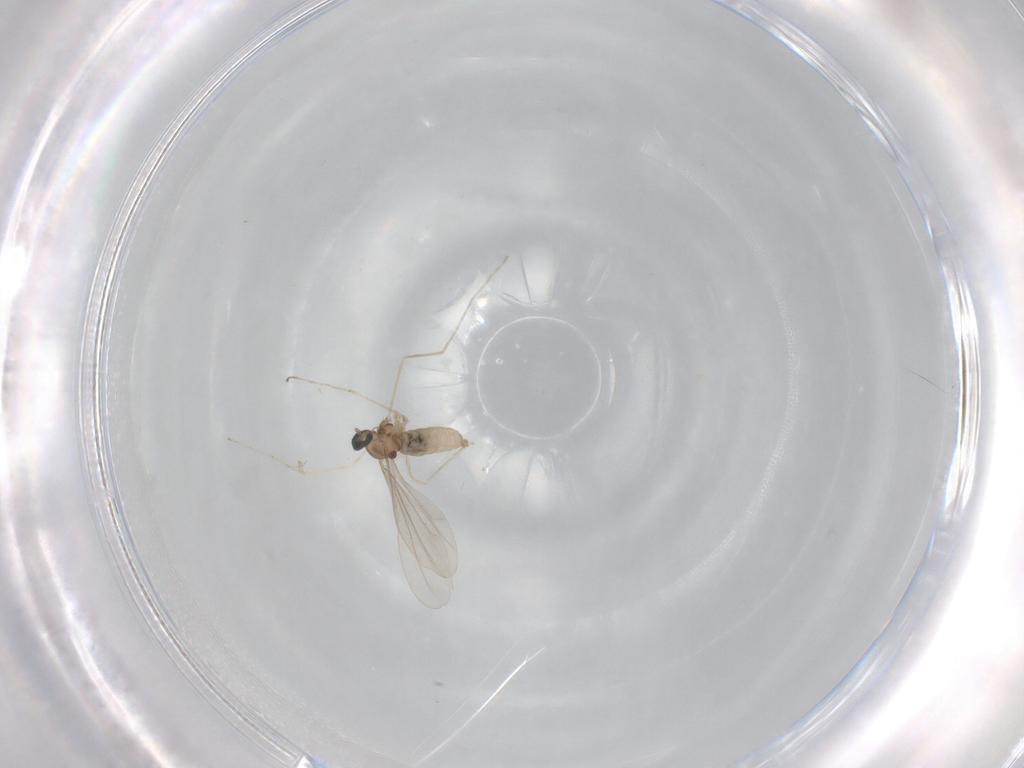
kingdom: Animalia
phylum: Arthropoda
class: Insecta
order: Diptera
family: Cecidomyiidae
